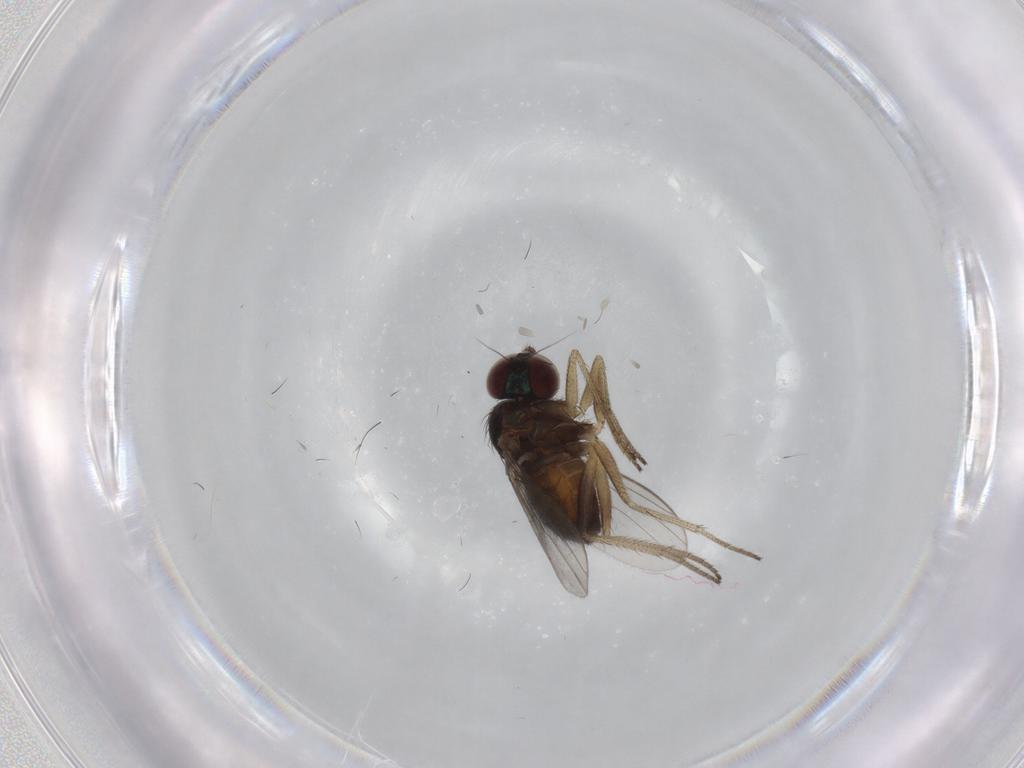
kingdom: Animalia
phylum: Arthropoda
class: Insecta
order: Diptera
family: Dolichopodidae
